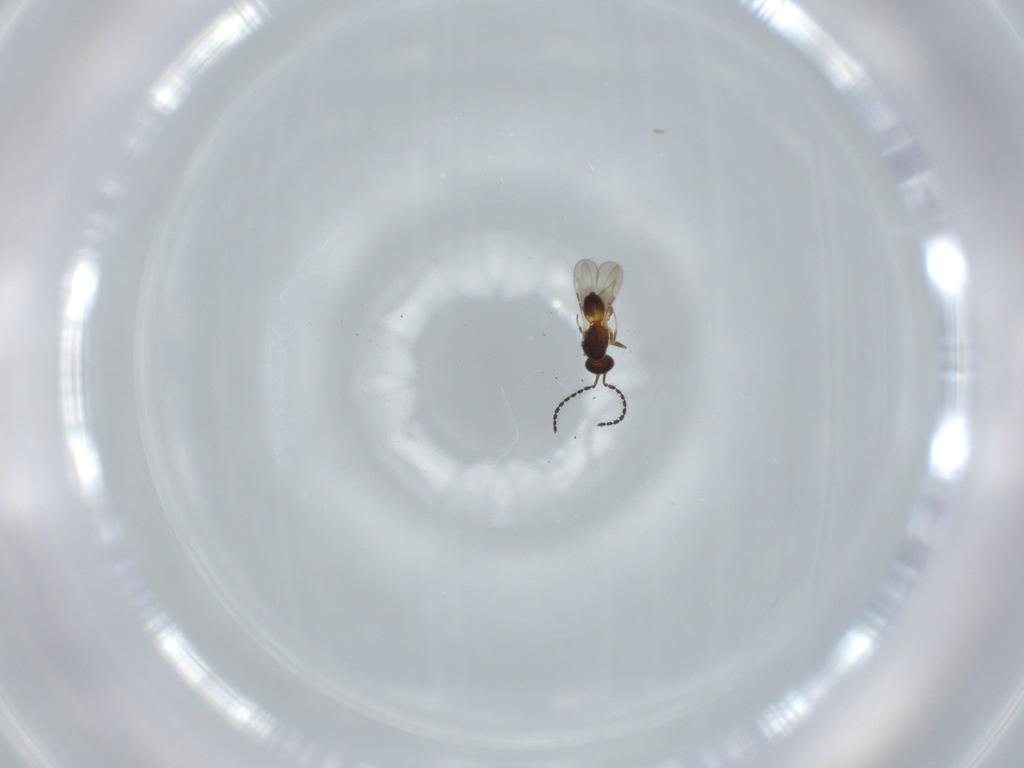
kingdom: Animalia
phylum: Arthropoda
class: Insecta
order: Hymenoptera
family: Ceraphronidae
